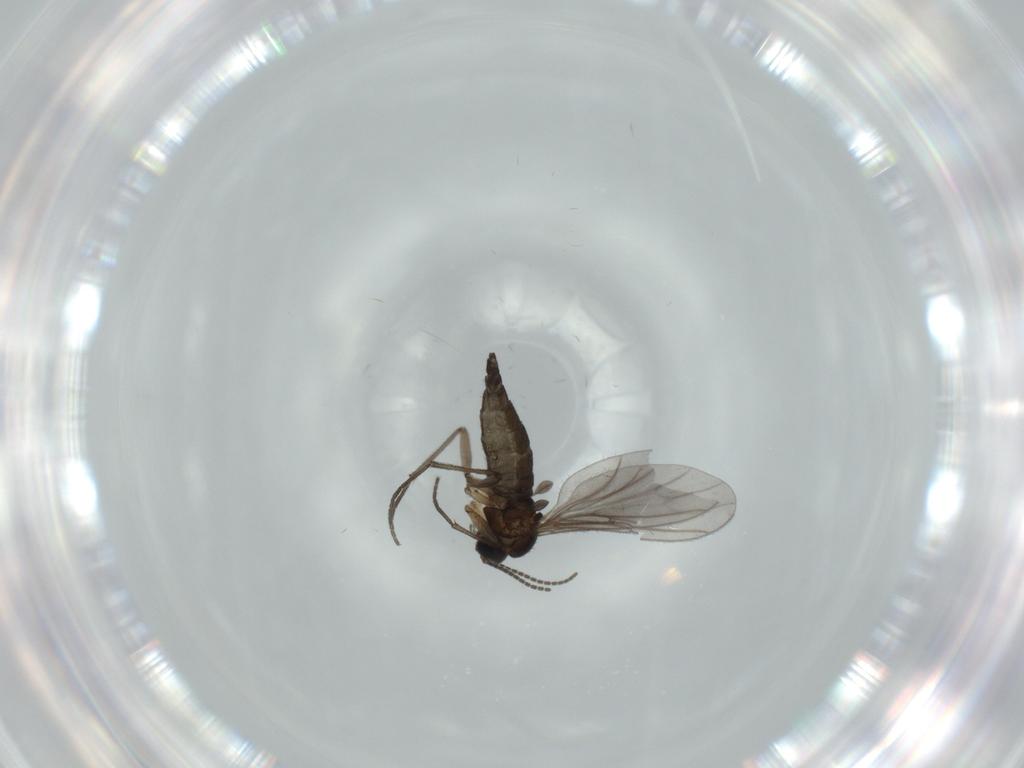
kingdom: Animalia
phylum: Arthropoda
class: Insecta
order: Diptera
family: Sciaridae
